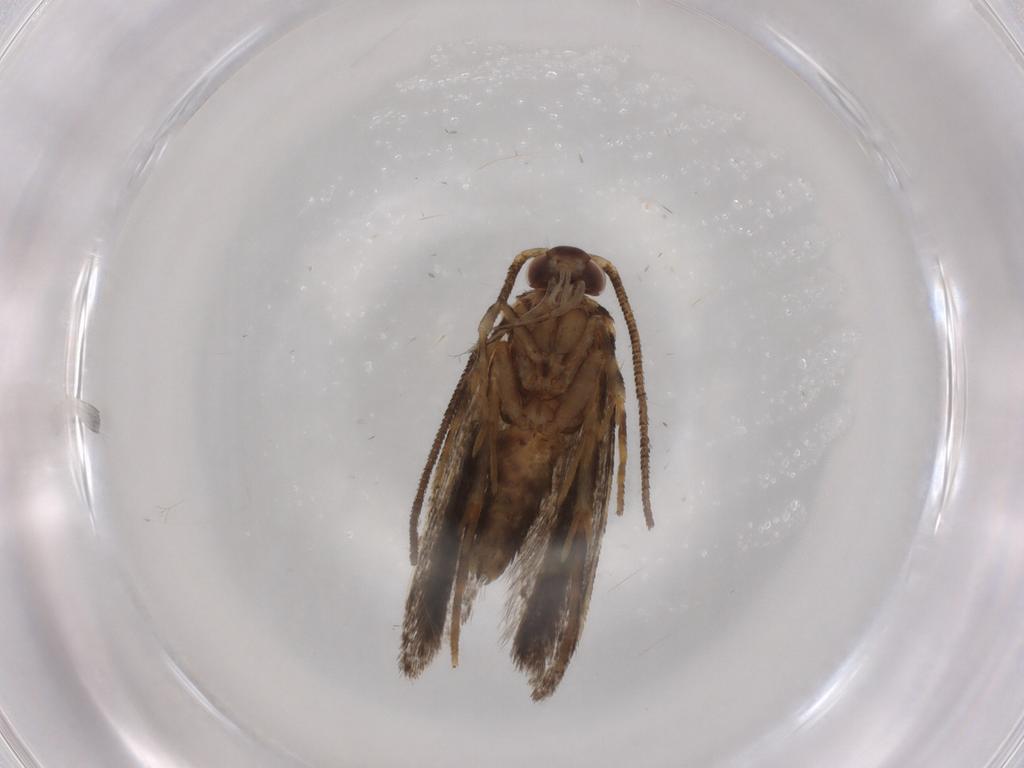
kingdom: Animalia
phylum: Arthropoda
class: Insecta
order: Lepidoptera
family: Autostichidae
